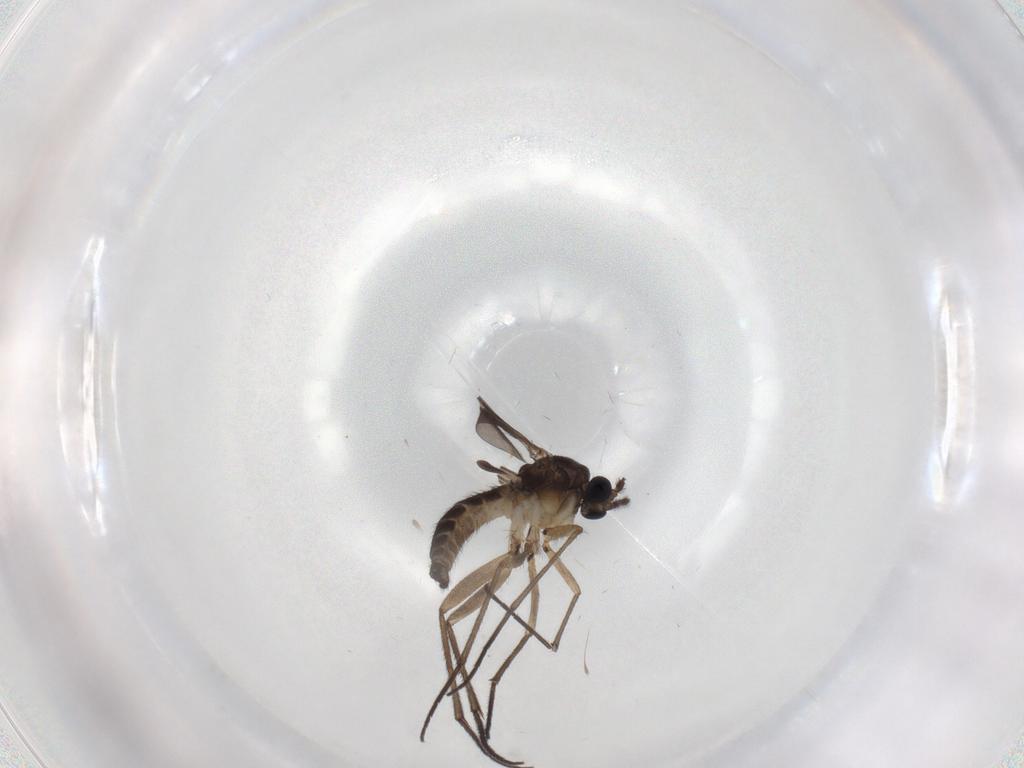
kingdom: Animalia
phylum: Arthropoda
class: Insecta
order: Diptera
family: Sciaridae
